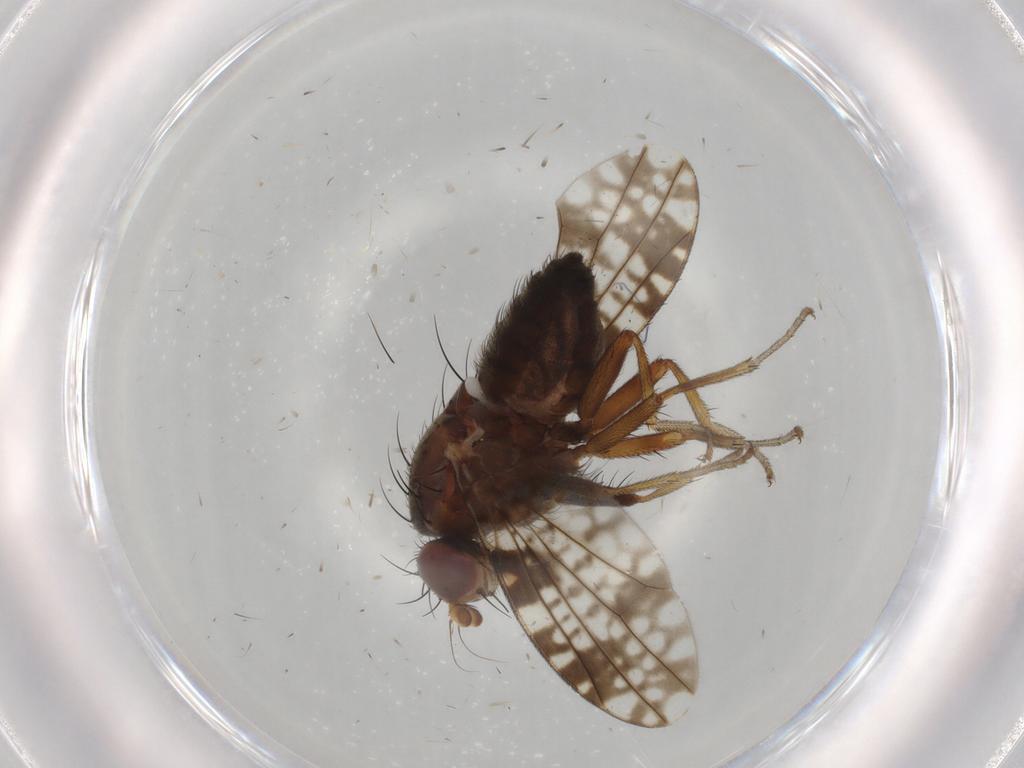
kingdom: Animalia
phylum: Arthropoda
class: Insecta
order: Diptera
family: Tephritidae
